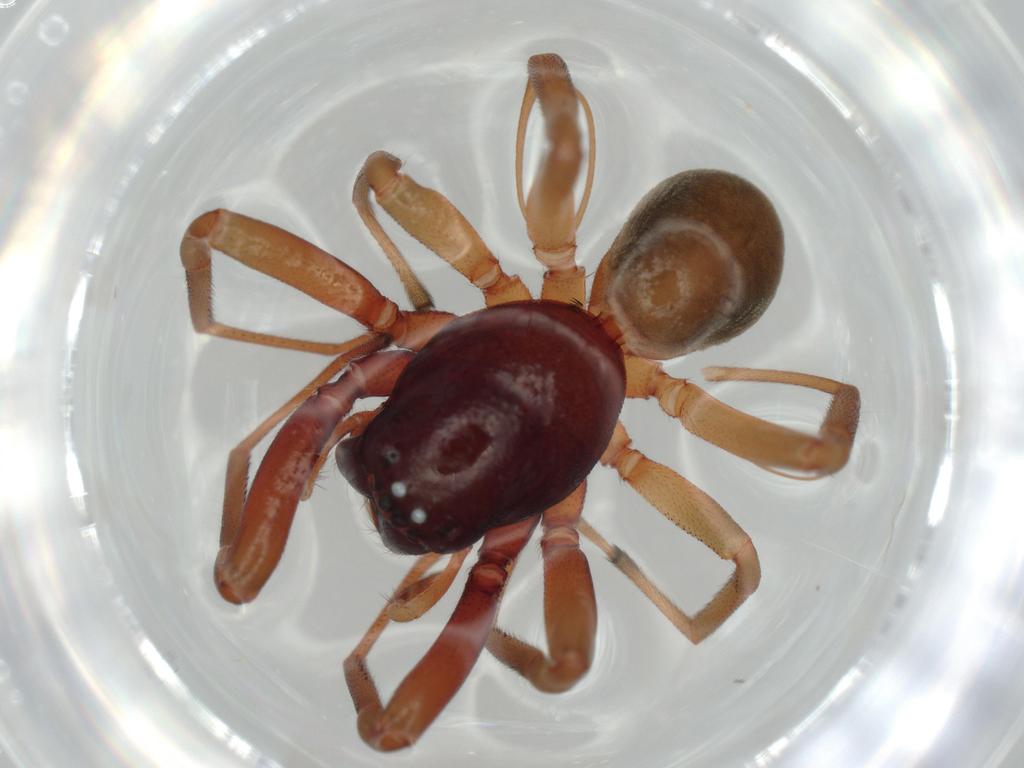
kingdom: Animalia
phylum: Arthropoda
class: Arachnida
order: Araneae
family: Trachelidae
